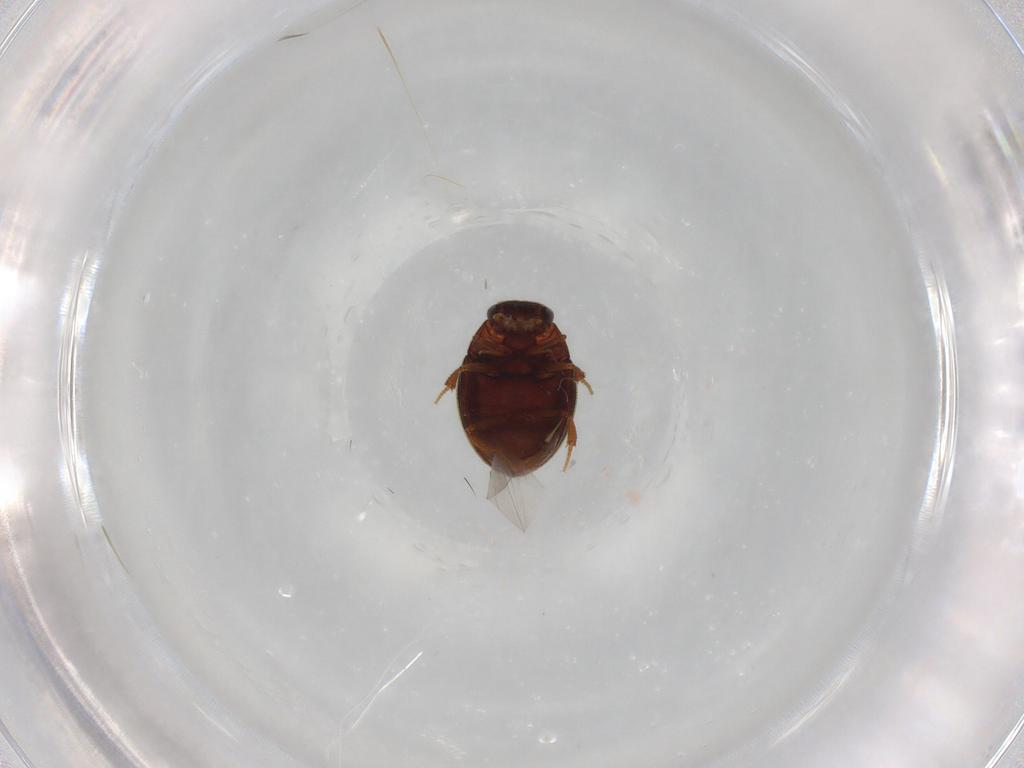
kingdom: Animalia
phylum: Arthropoda
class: Insecta
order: Coleoptera
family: Hydrophilidae
